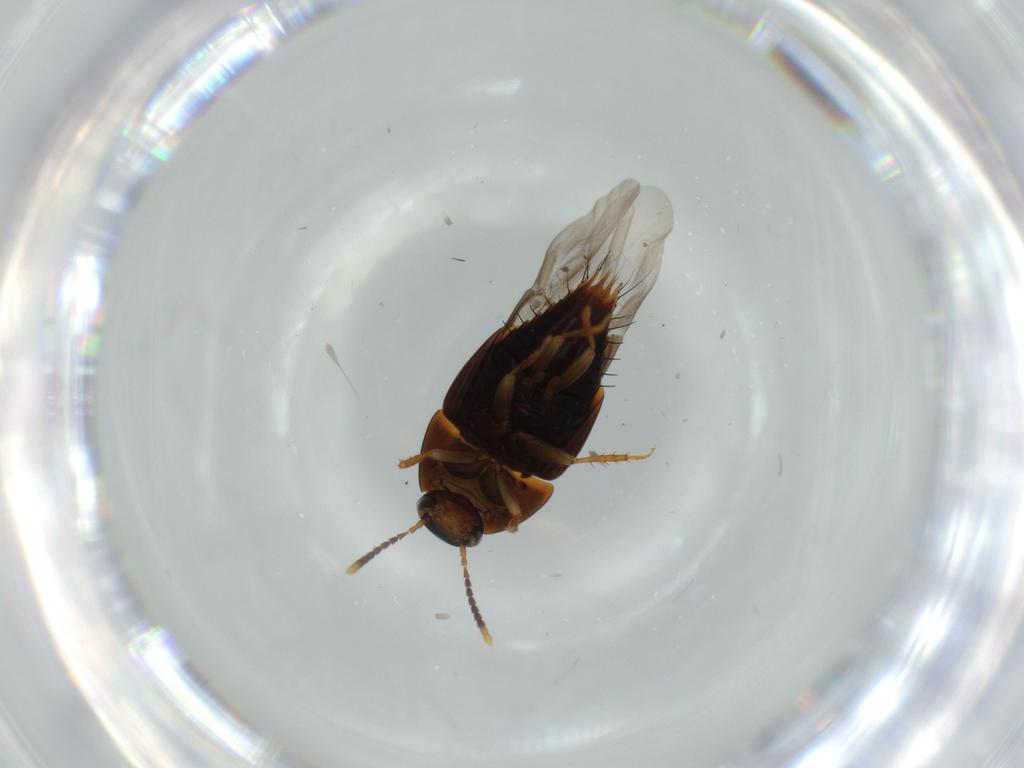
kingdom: Animalia
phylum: Arthropoda
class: Insecta
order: Coleoptera
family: Staphylinidae
